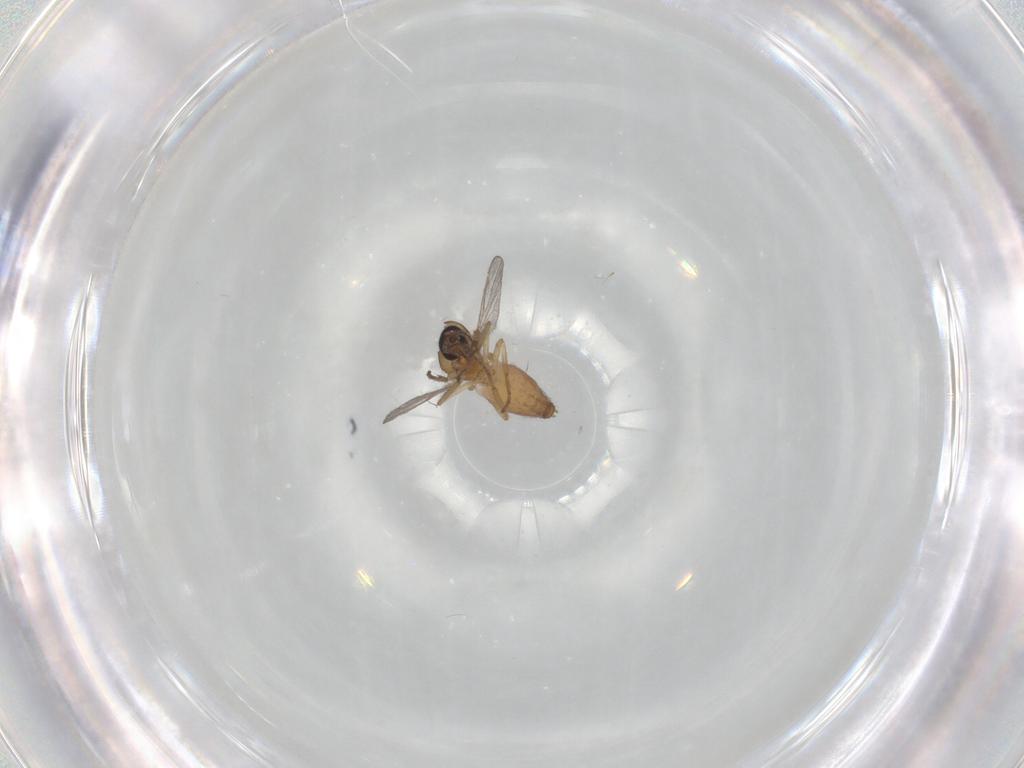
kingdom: Animalia
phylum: Arthropoda
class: Insecta
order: Diptera
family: Ceratopogonidae
